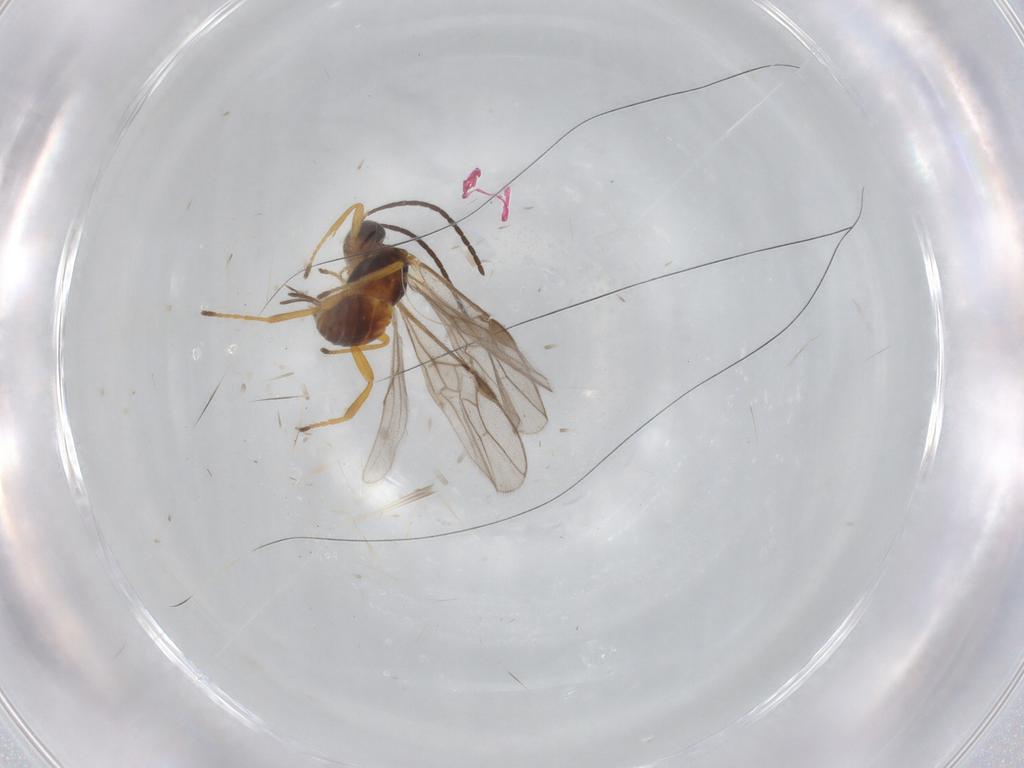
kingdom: Animalia
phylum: Arthropoda
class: Insecta
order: Hymenoptera
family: Braconidae
